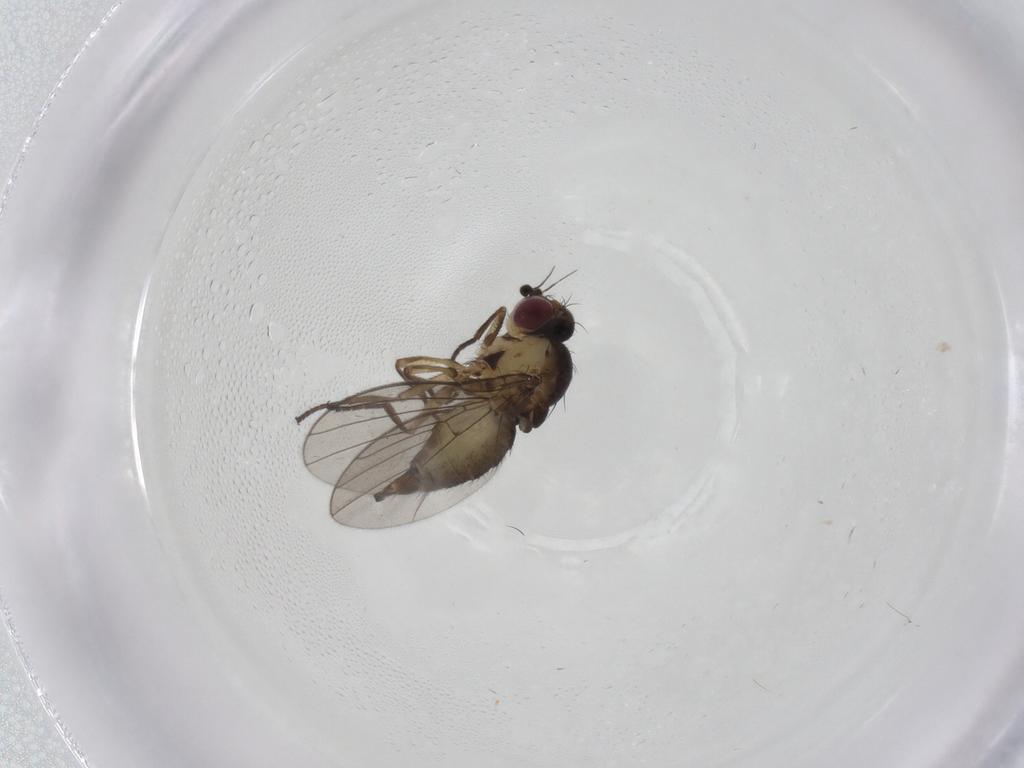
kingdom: Animalia
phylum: Arthropoda
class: Insecta
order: Diptera
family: Agromyzidae
